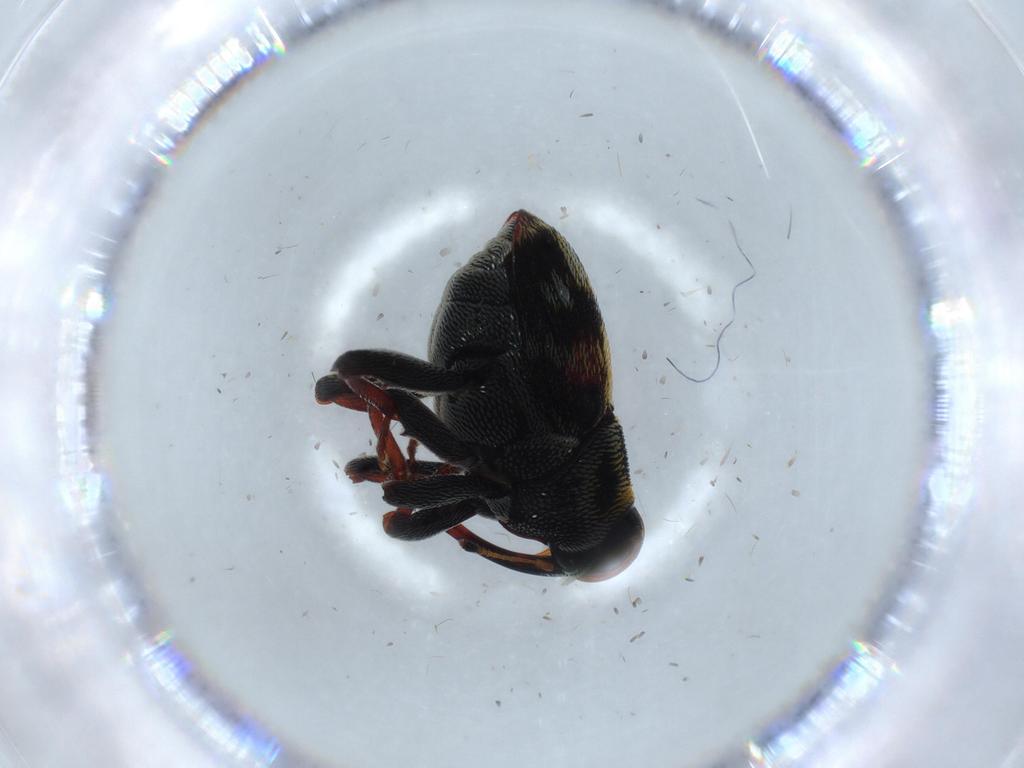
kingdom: Animalia
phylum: Arthropoda
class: Insecta
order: Coleoptera
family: Curculionidae
